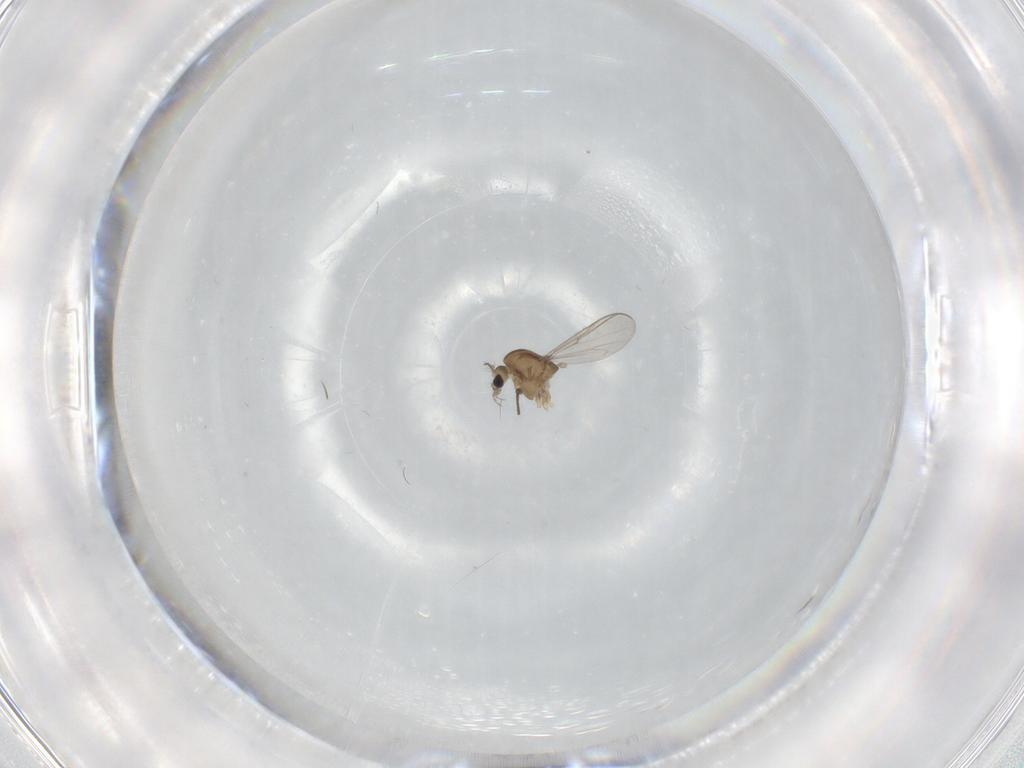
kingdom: Animalia
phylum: Arthropoda
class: Insecta
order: Diptera
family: Chironomidae
